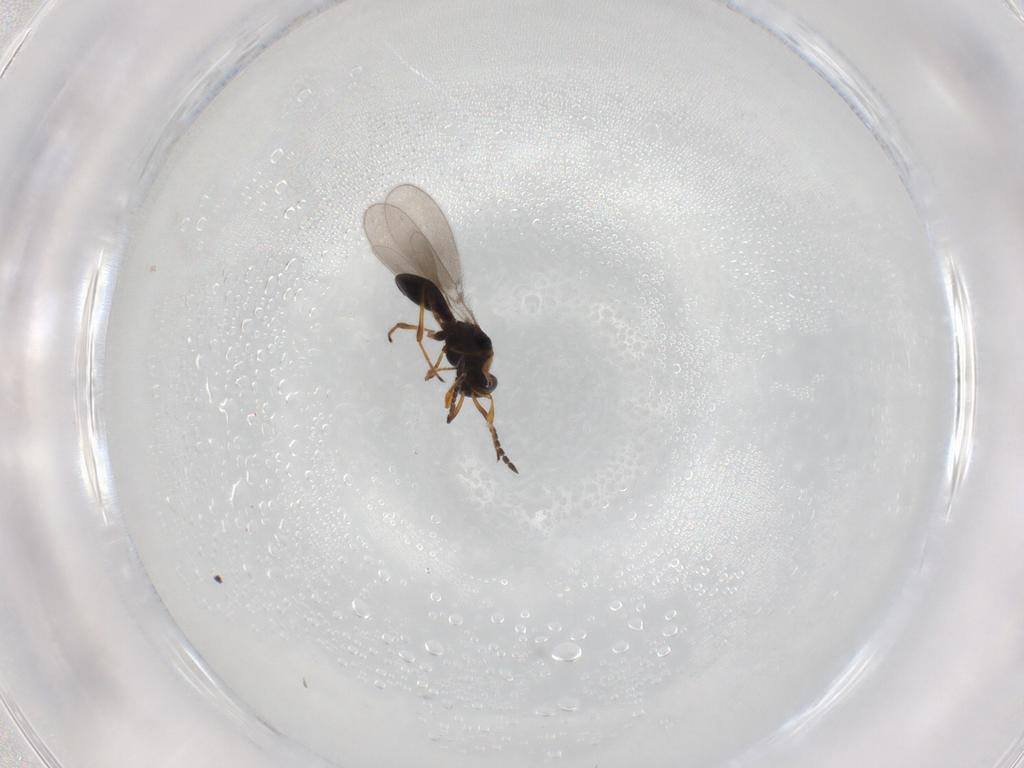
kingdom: Animalia
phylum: Arthropoda
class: Insecta
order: Hymenoptera
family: Platygastridae
